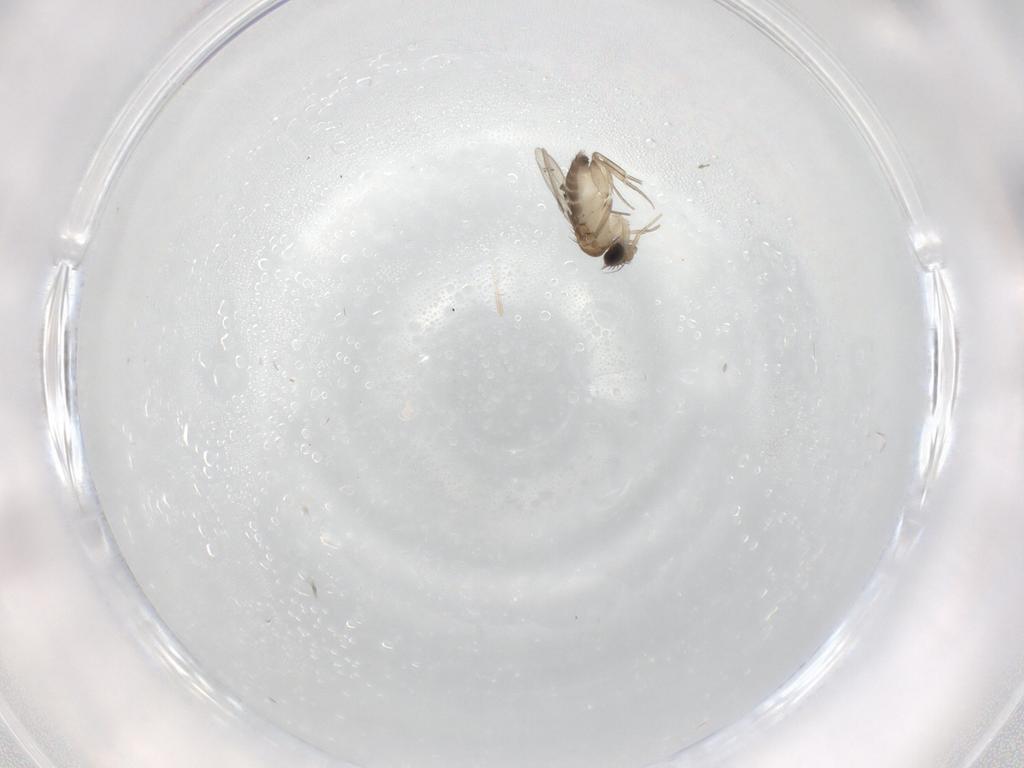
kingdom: Animalia
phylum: Arthropoda
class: Insecta
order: Diptera
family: Phoridae
